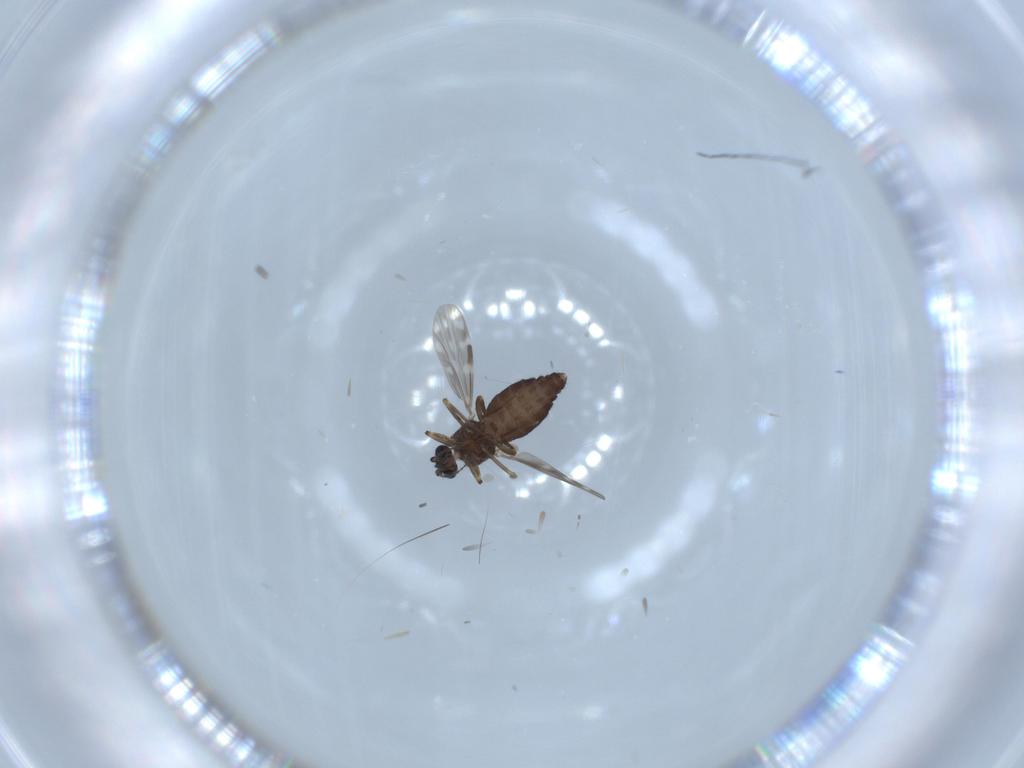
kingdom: Animalia
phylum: Arthropoda
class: Insecta
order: Diptera
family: Ceratopogonidae
